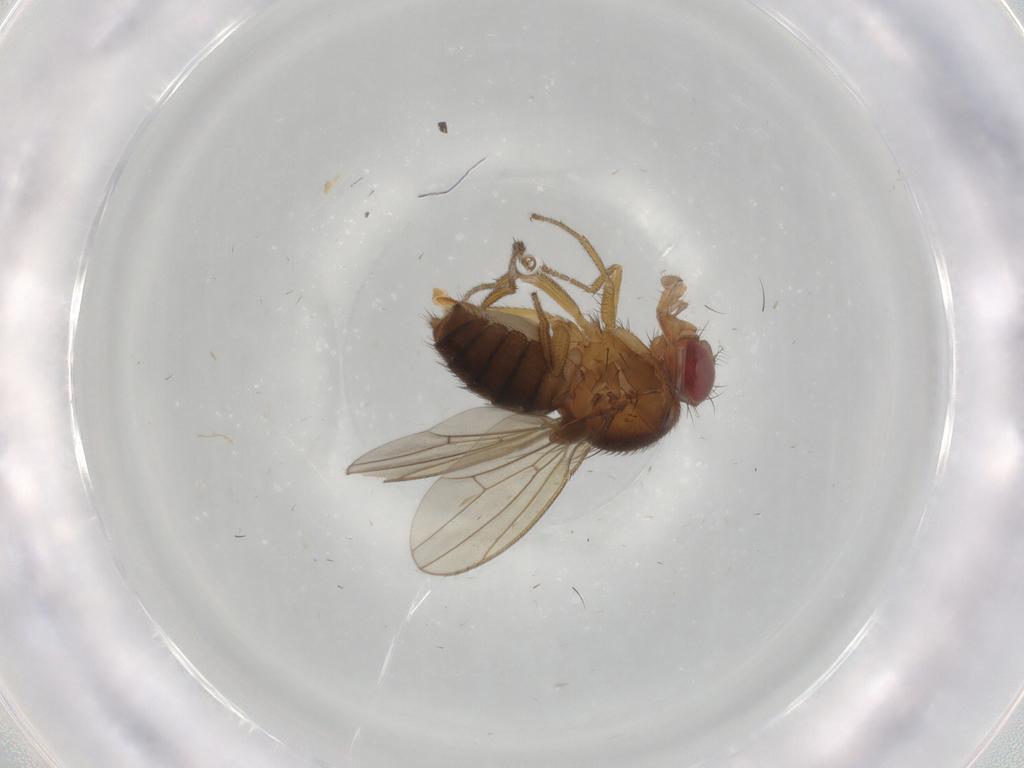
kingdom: Animalia
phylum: Arthropoda
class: Insecta
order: Diptera
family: Drosophilidae
